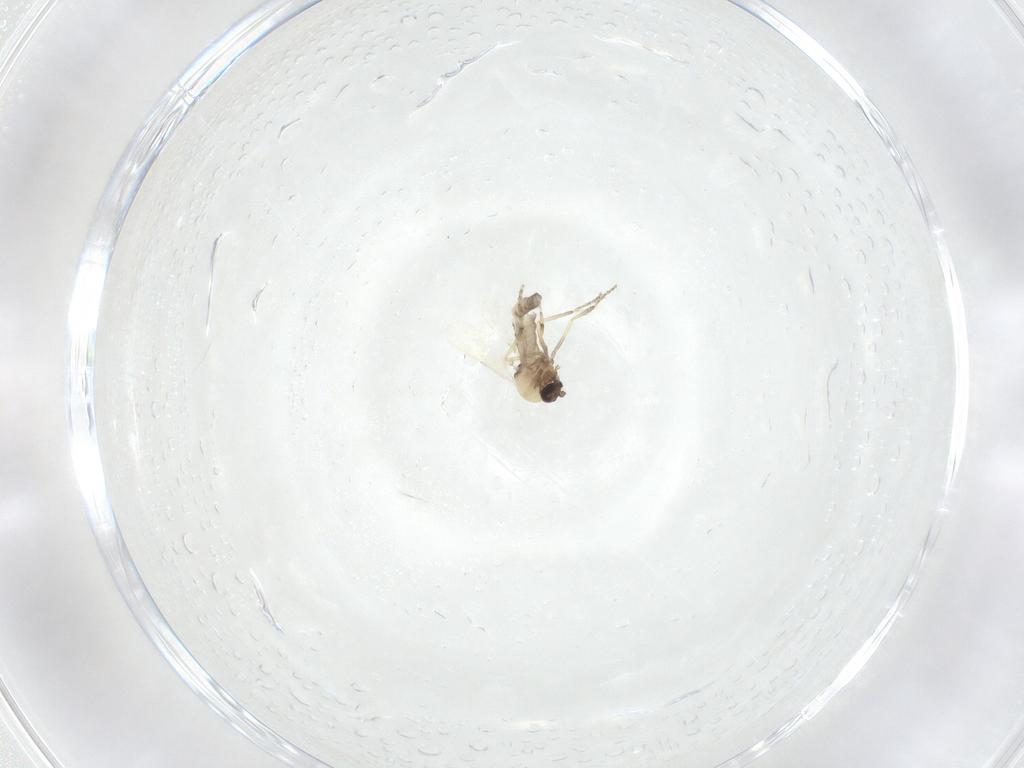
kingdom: Animalia
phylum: Arthropoda
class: Insecta
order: Diptera
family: Ceratopogonidae
